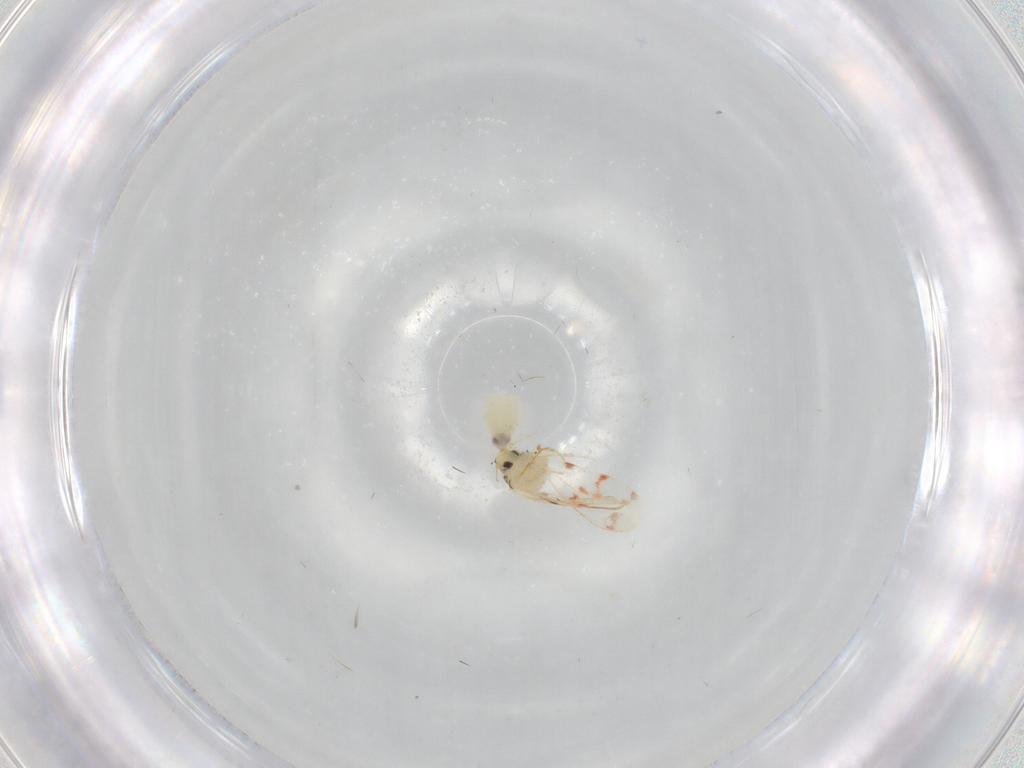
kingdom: Animalia
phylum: Arthropoda
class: Insecta
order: Hemiptera
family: Aleyrodidae
